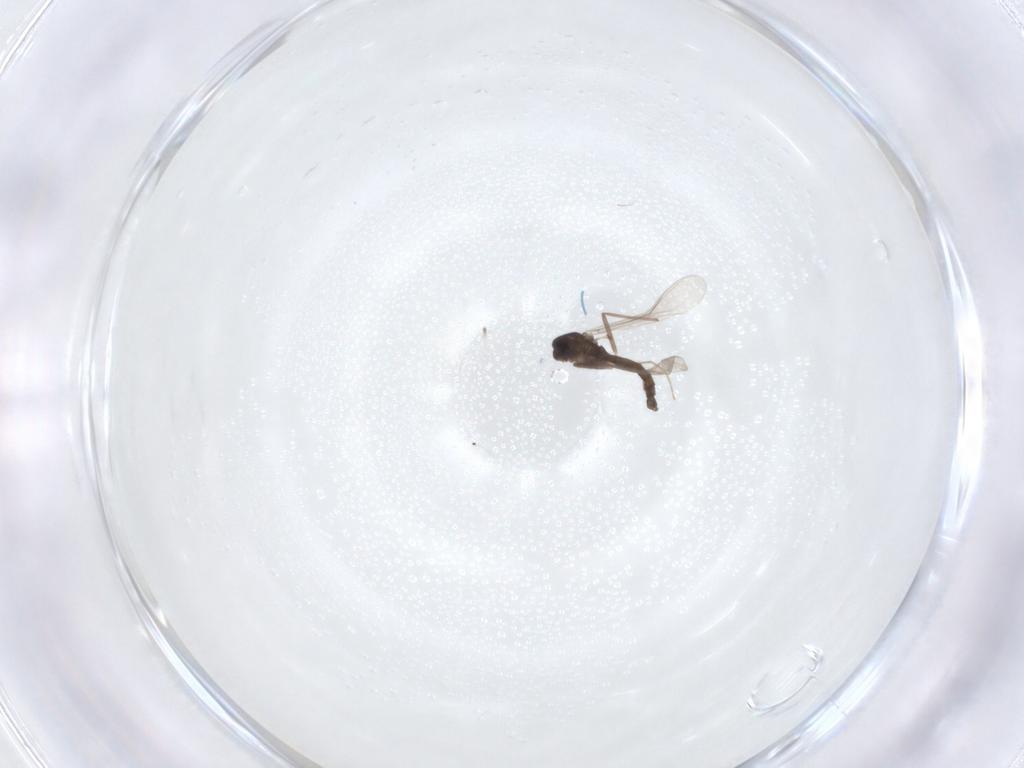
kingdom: Animalia
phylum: Arthropoda
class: Insecta
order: Diptera
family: Chironomidae
